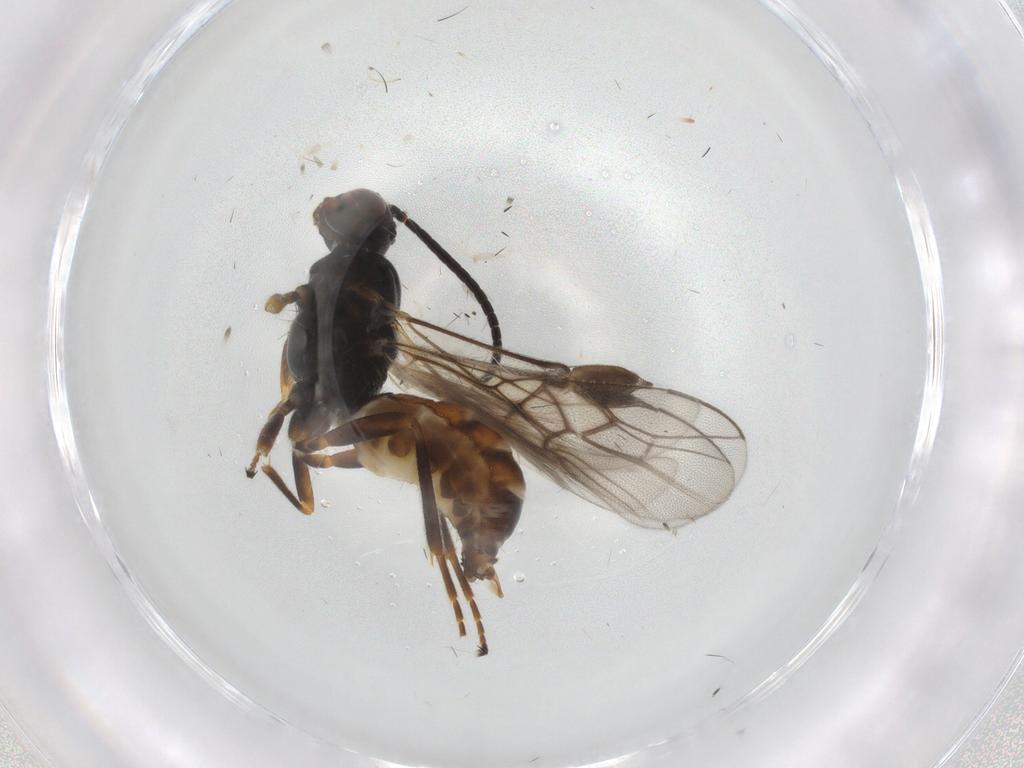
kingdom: Animalia
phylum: Arthropoda
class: Insecta
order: Hymenoptera
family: Braconidae
